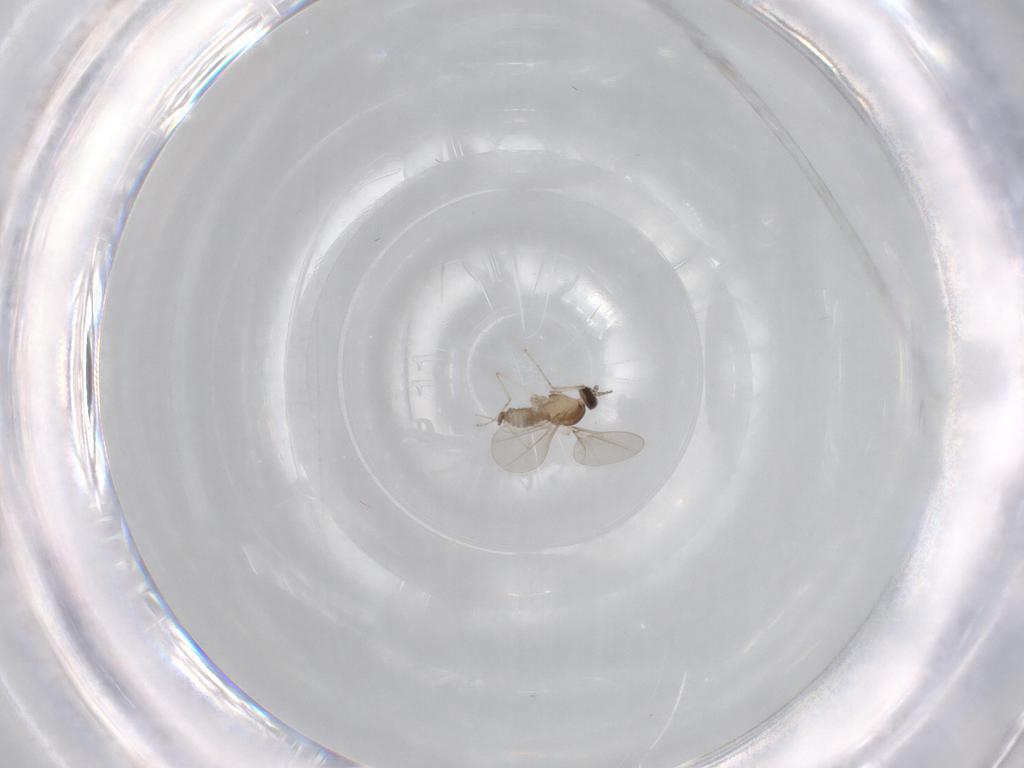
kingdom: Animalia
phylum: Arthropoda
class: Insecta
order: Diptera
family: Cecidomyiidae
